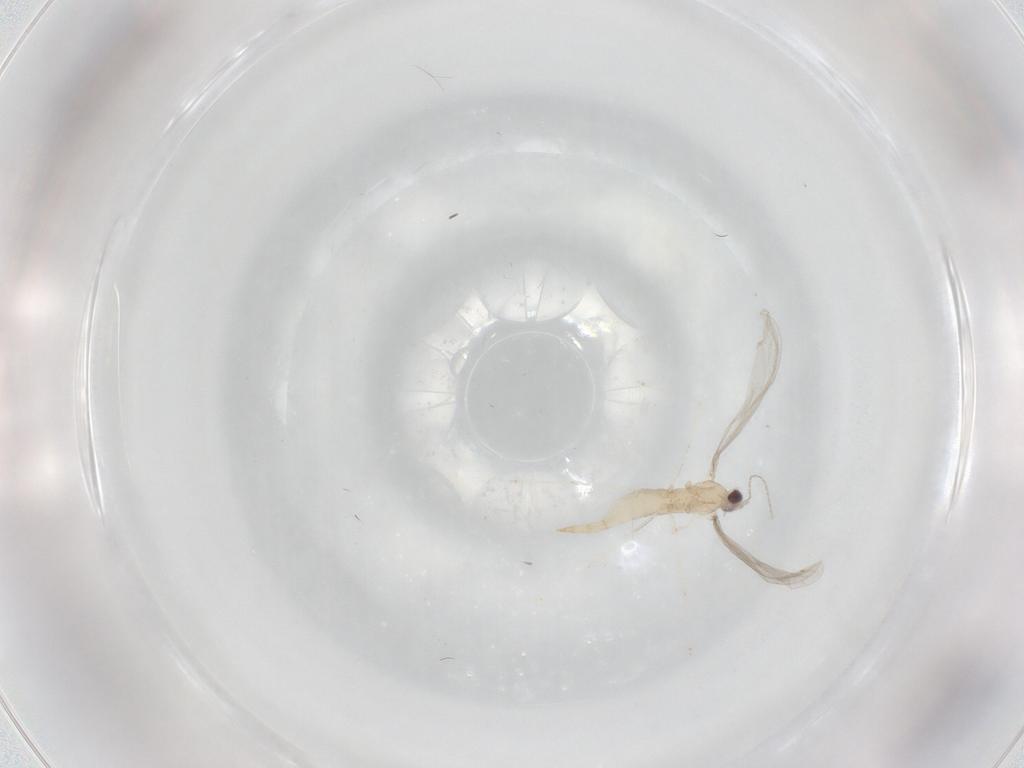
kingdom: Animalia
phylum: Arthropoda
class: Insecta
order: Diptera
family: Cecidomyiidae
